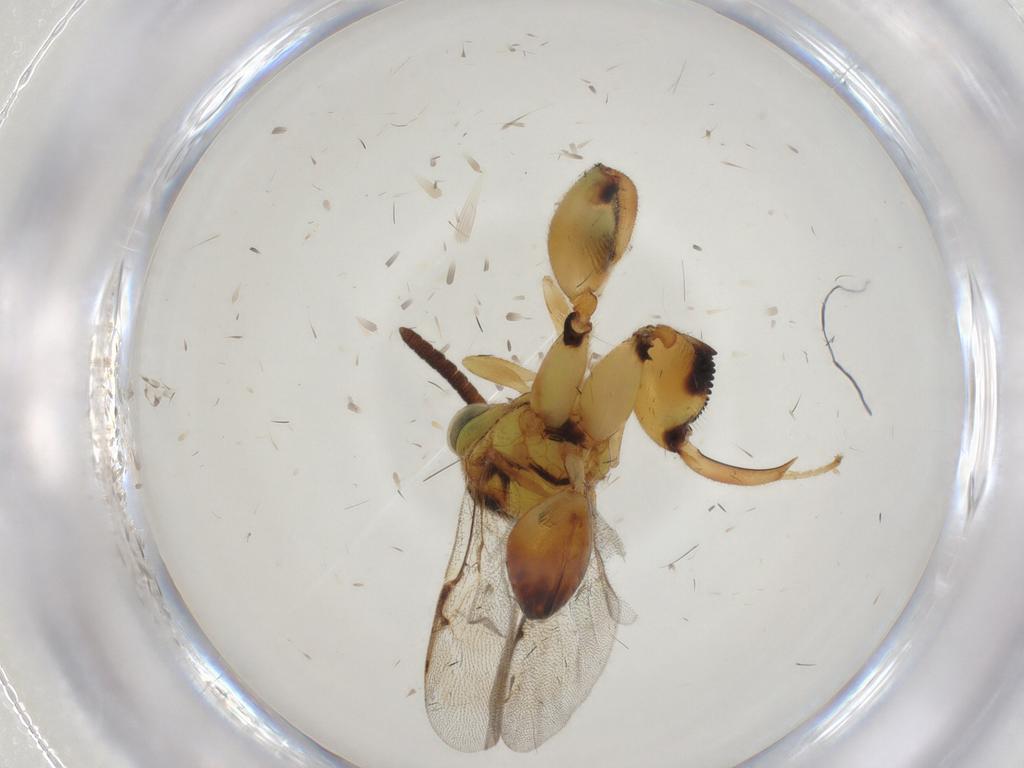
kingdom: Animalia
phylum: Arthropoda
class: Insecta
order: Hymenoptera
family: Chalcididae
